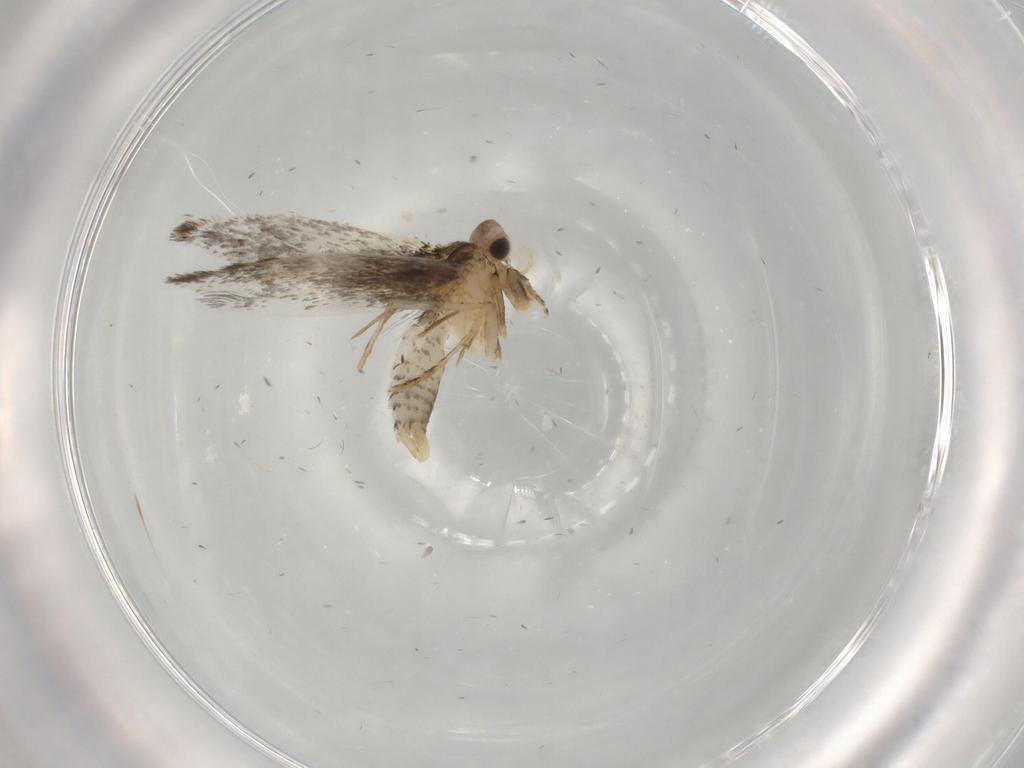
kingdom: Animalia
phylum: Arthropoda
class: Insecta
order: Lepidoptera
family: Tineidae
